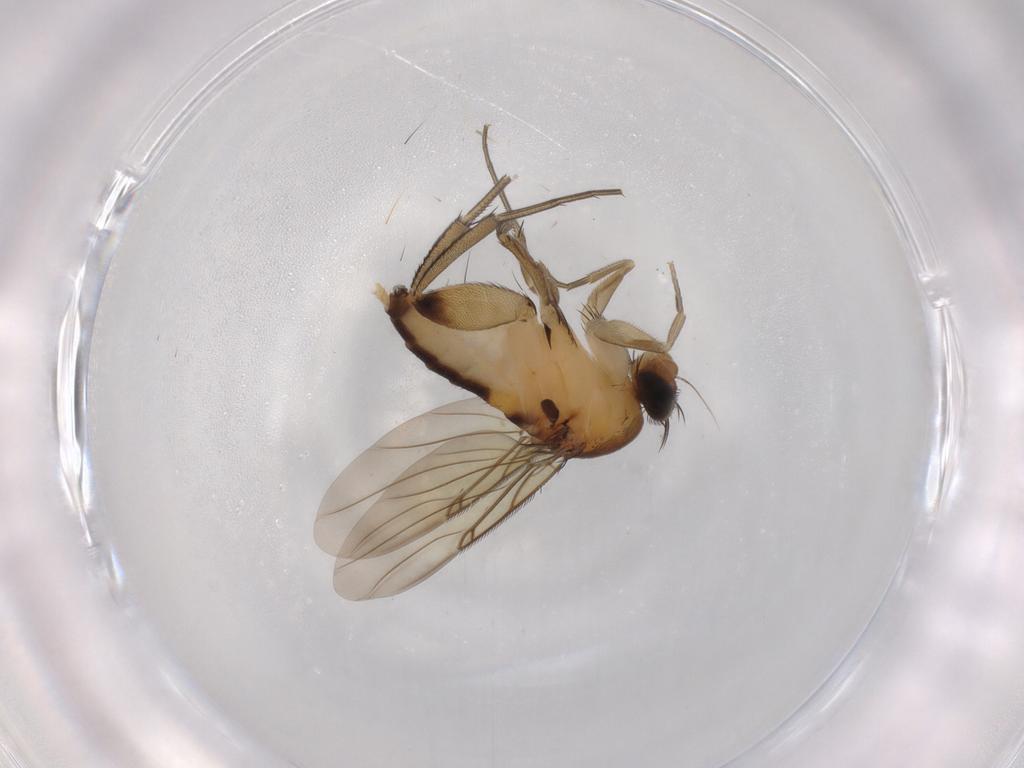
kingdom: Animalia
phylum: Arthropoda
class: Insecta
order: Diptera
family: Phoridae
